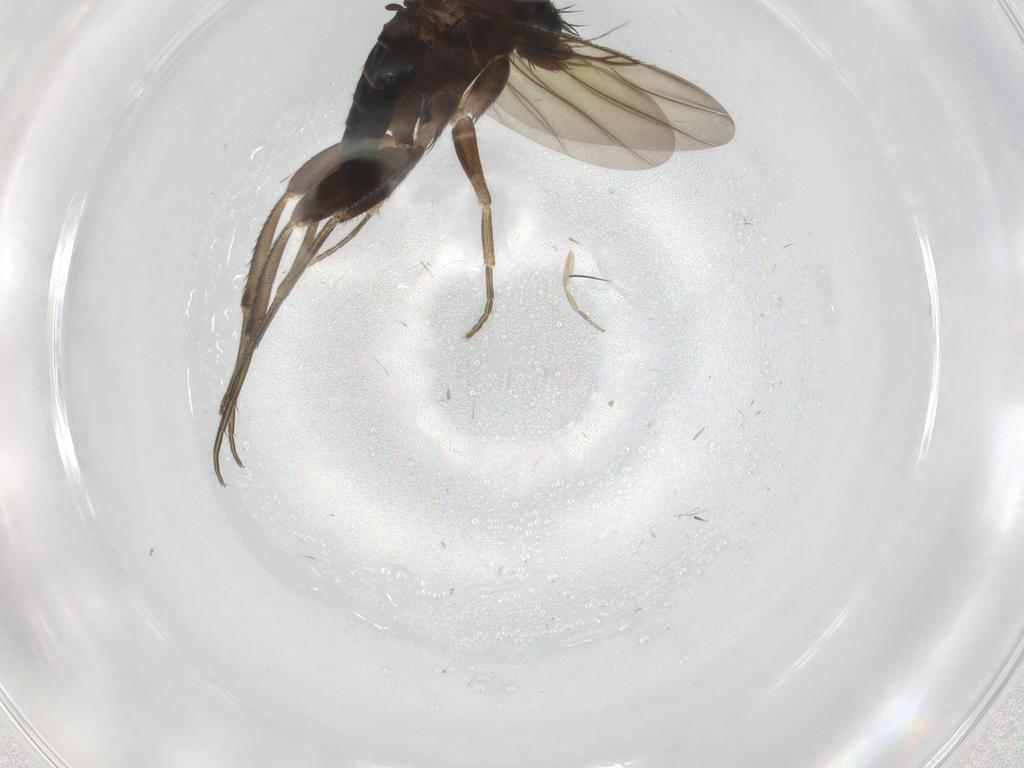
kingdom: Animalia
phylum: Arthropoda
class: Insecta
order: Diptera
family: Phoridae
